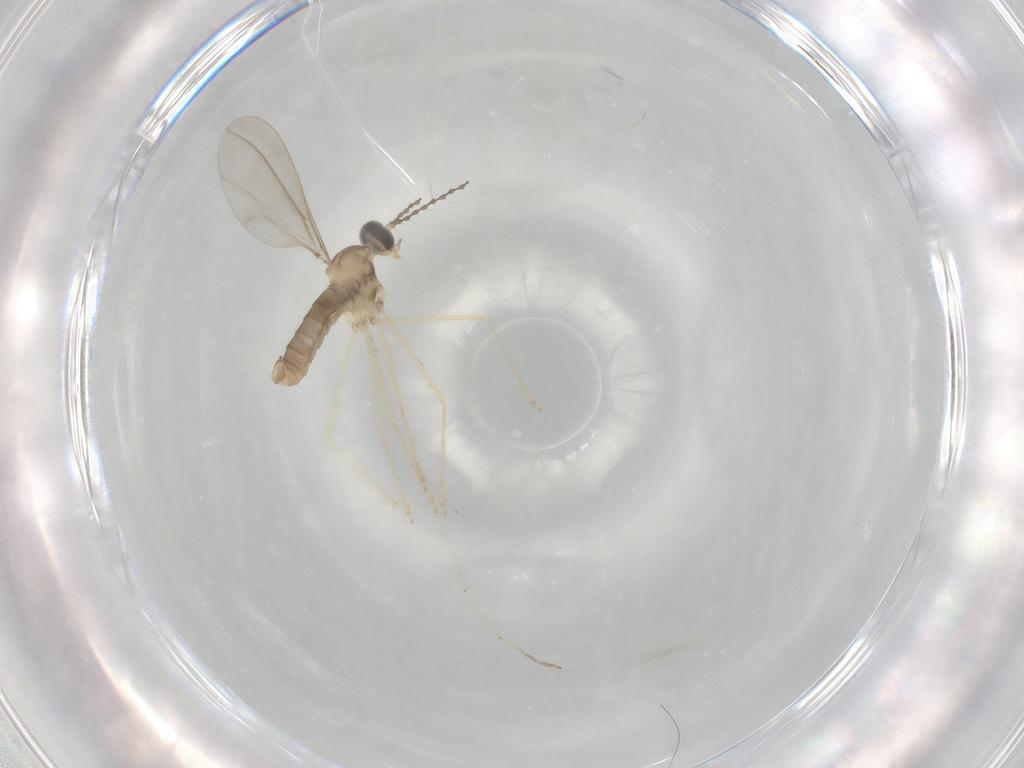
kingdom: Animalia
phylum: Arthropoda
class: Insecta
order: Diptera
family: Cecidomyiidae
